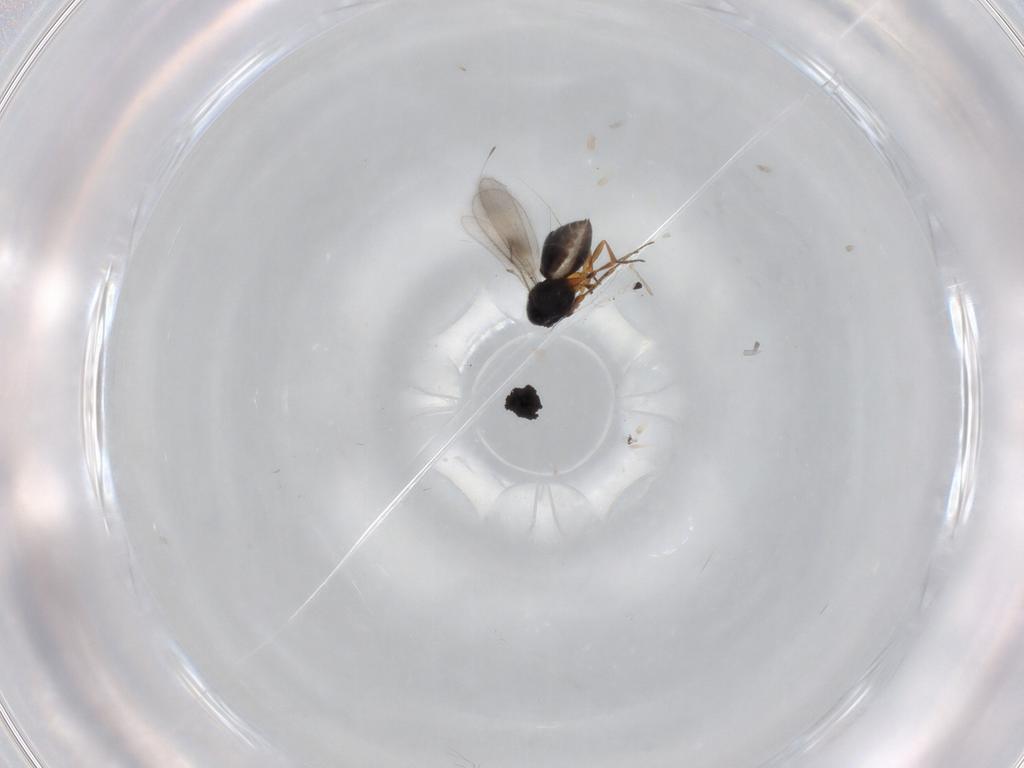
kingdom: Animalia
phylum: Arthropoda
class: Insecta
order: Hymenoptera
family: Scelionidae
